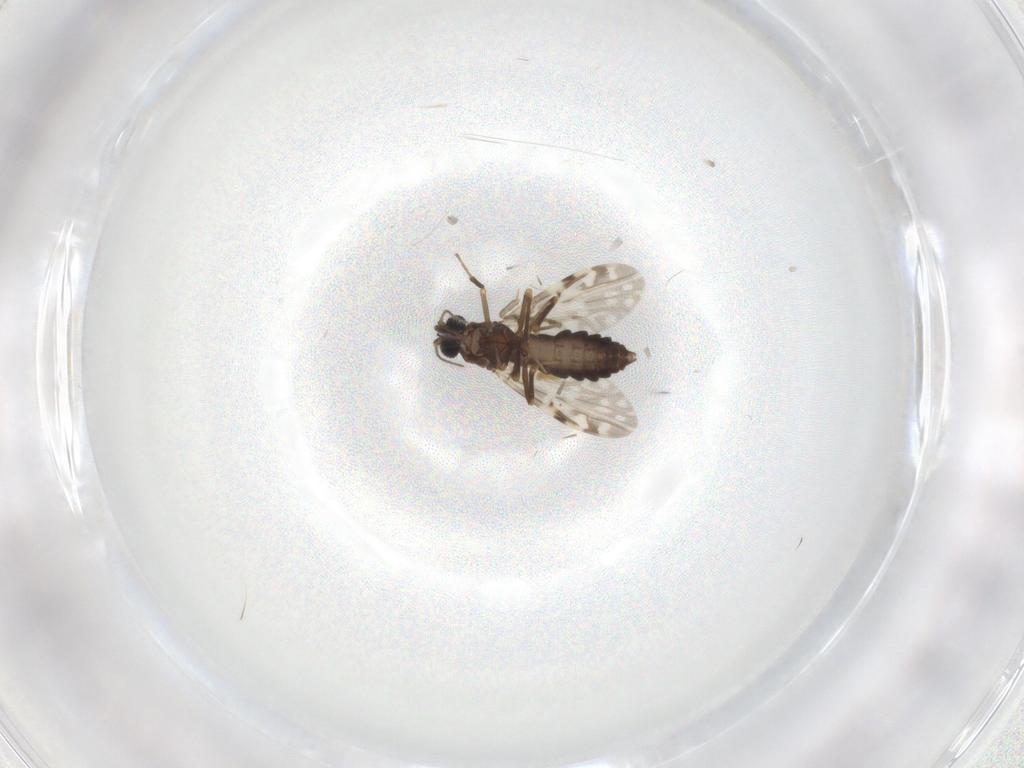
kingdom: Animalia
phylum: Arthropoda
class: Insecta
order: Diptera
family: Ceratopogonidae
